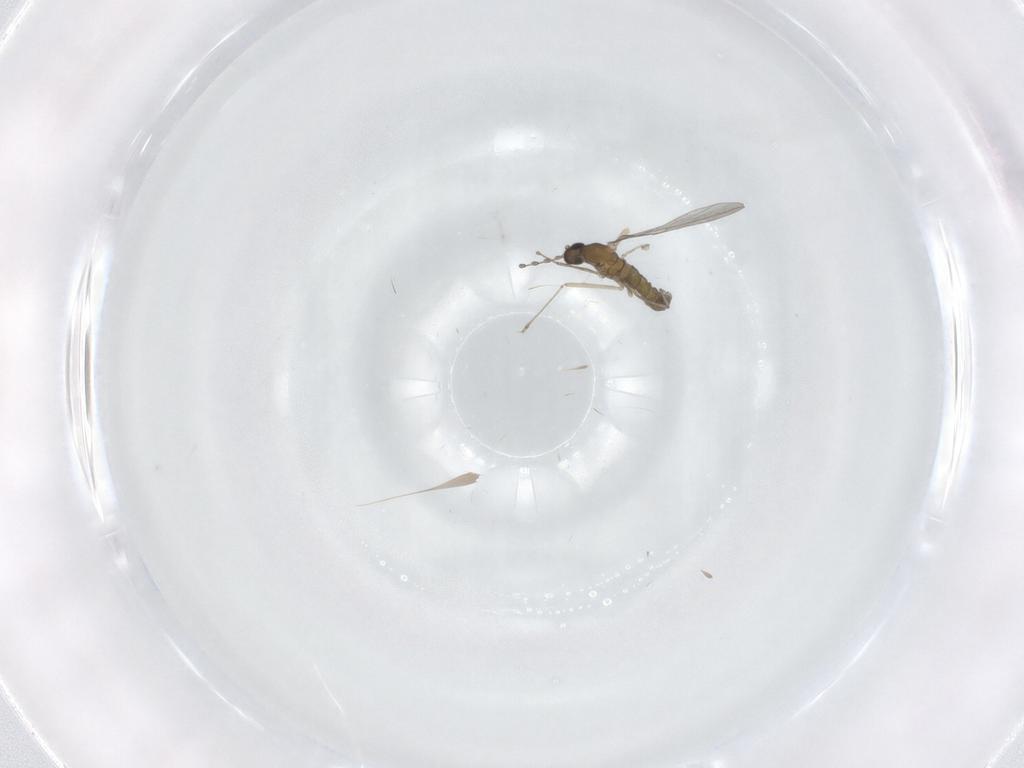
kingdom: Animalia
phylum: Arthropoda
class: Insecta
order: Diptera
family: Cecidomyiidae
